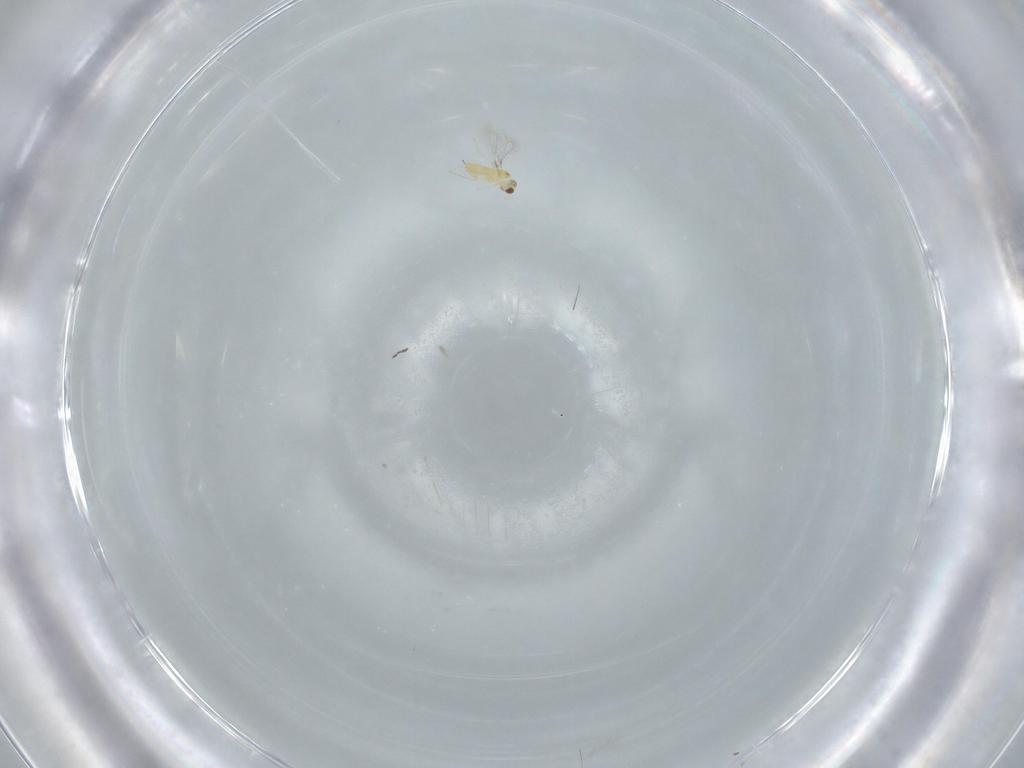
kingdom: Animalia
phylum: Arthropoda
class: Insecta
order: Hymenoptera
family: Mymaridae
